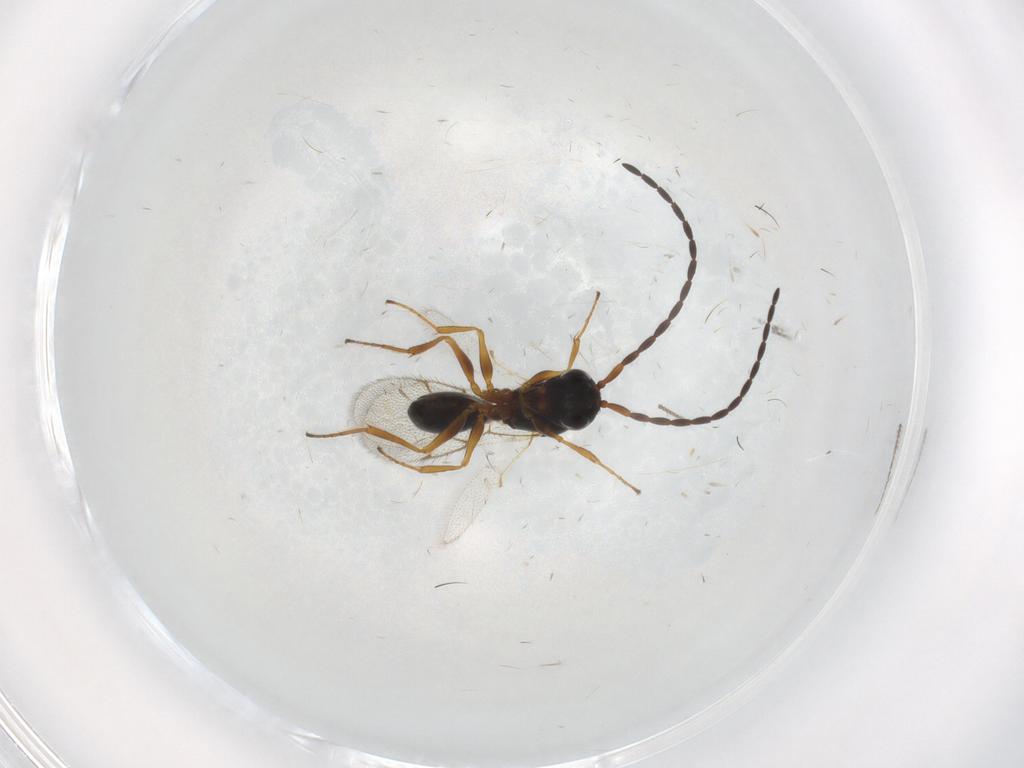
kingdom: Animalia
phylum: Arthropoda
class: Insecta
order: Hymenoptera
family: Figitidae
